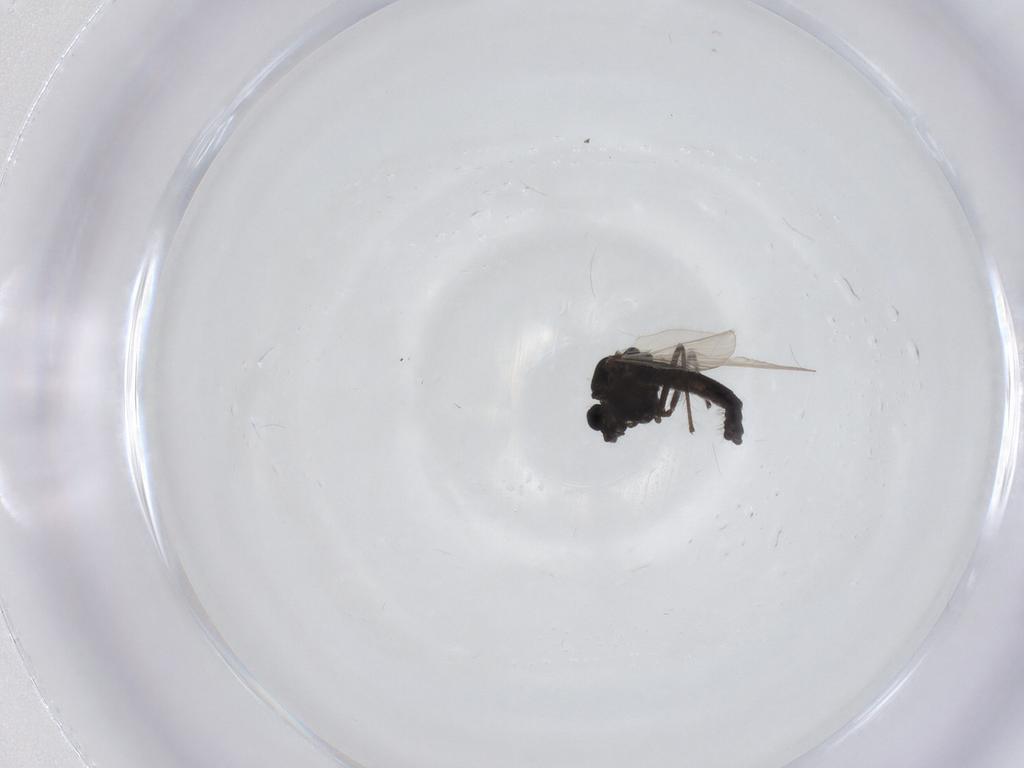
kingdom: Animalia
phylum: Arthropoda
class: Insecta
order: Diptera
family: Chironomidae
